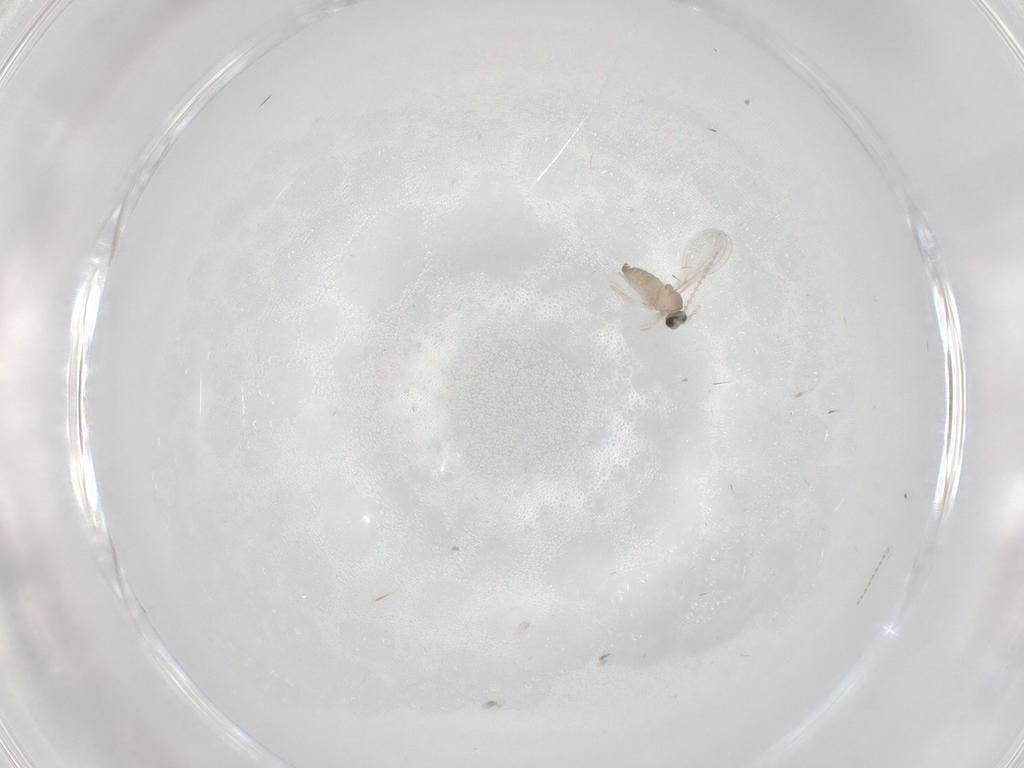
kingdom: Animalia
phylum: Arthropoda
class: Insecta
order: Diptera
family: Cecidomyiidae
